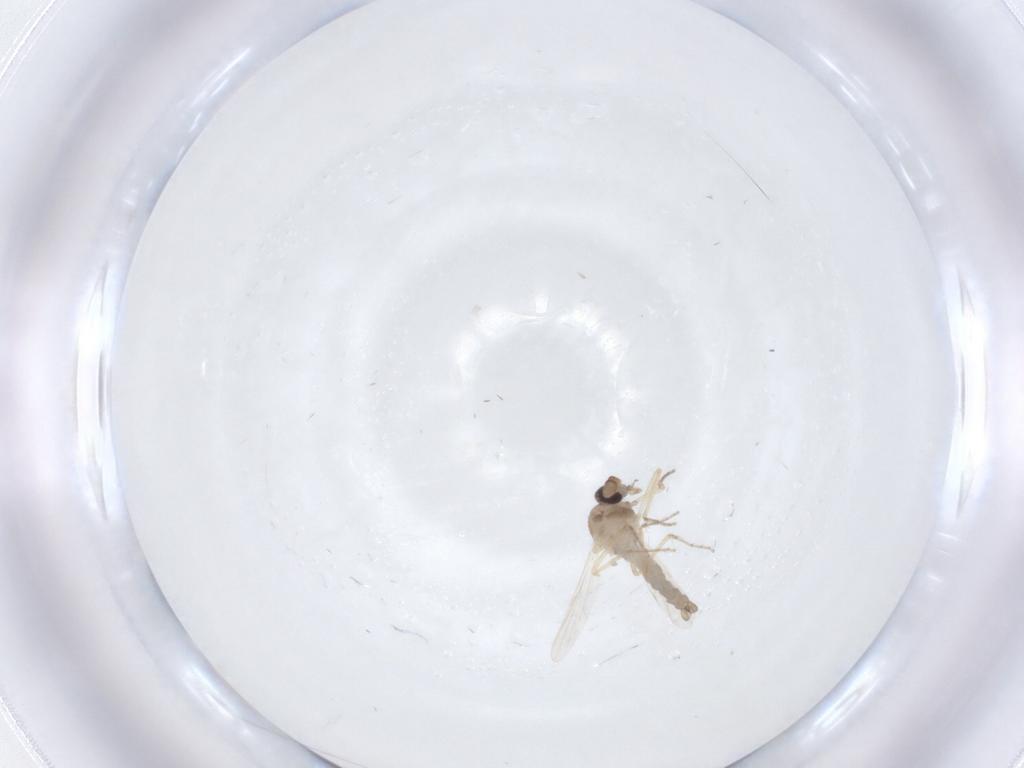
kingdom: Animalia
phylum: Arthropoda
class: Insecta
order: Diptera
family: Ceratopogonidae
